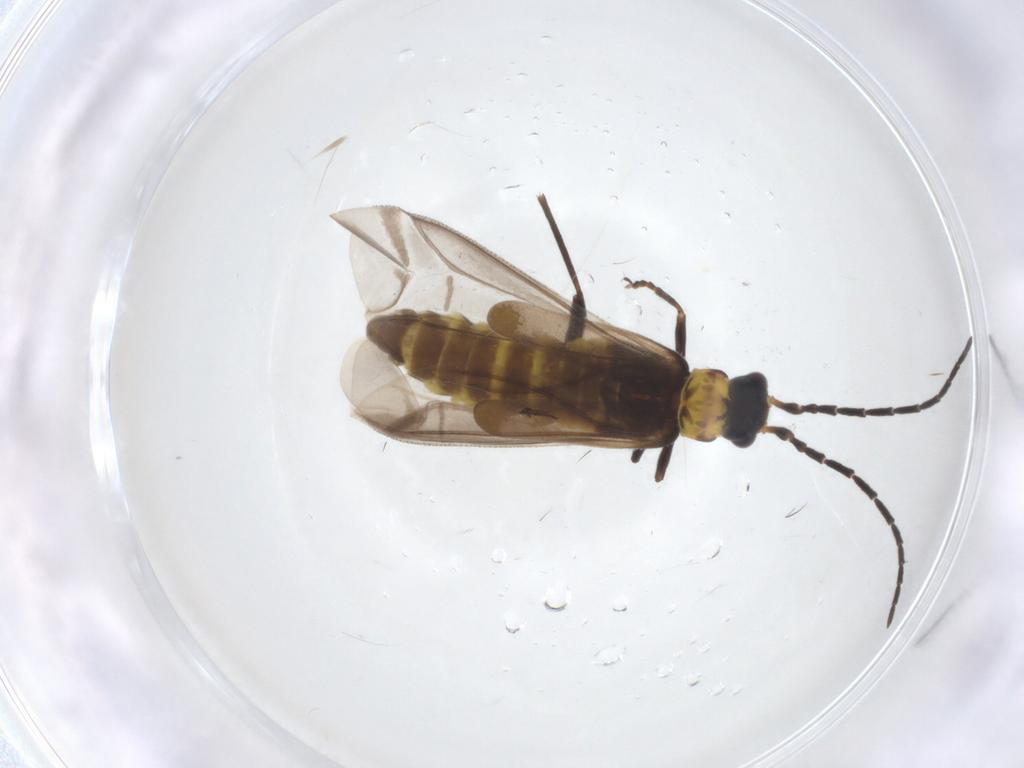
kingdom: Animalia
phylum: Arthropoda
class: Insecta
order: Coleoptera
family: Cantharidae
